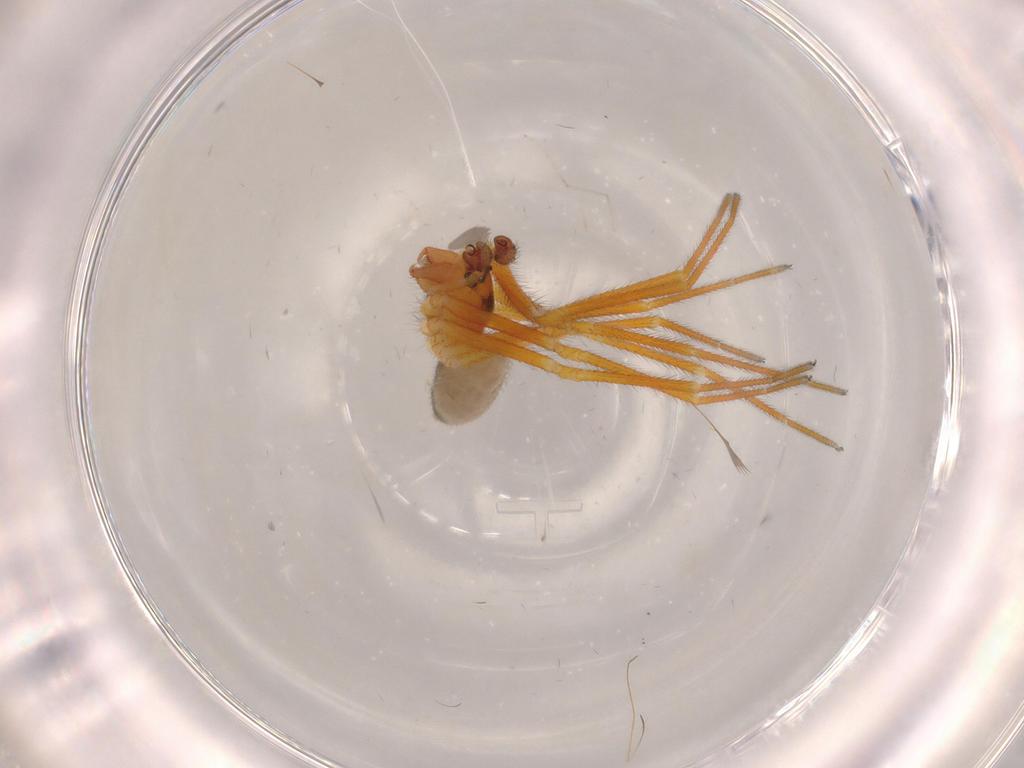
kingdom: Animalia
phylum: Arthropoda
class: Arachnida
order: Araneae
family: Linyphiidae
